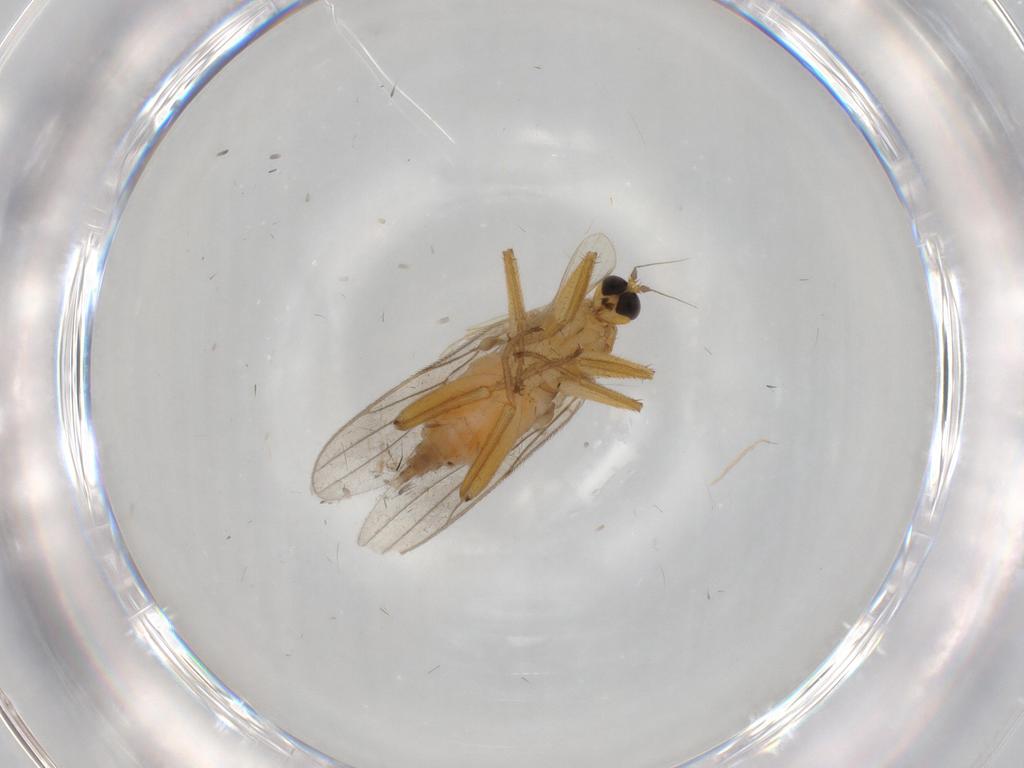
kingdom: Animalia
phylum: Arthropoda
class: Insecta
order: Diptera
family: Hybotidae
